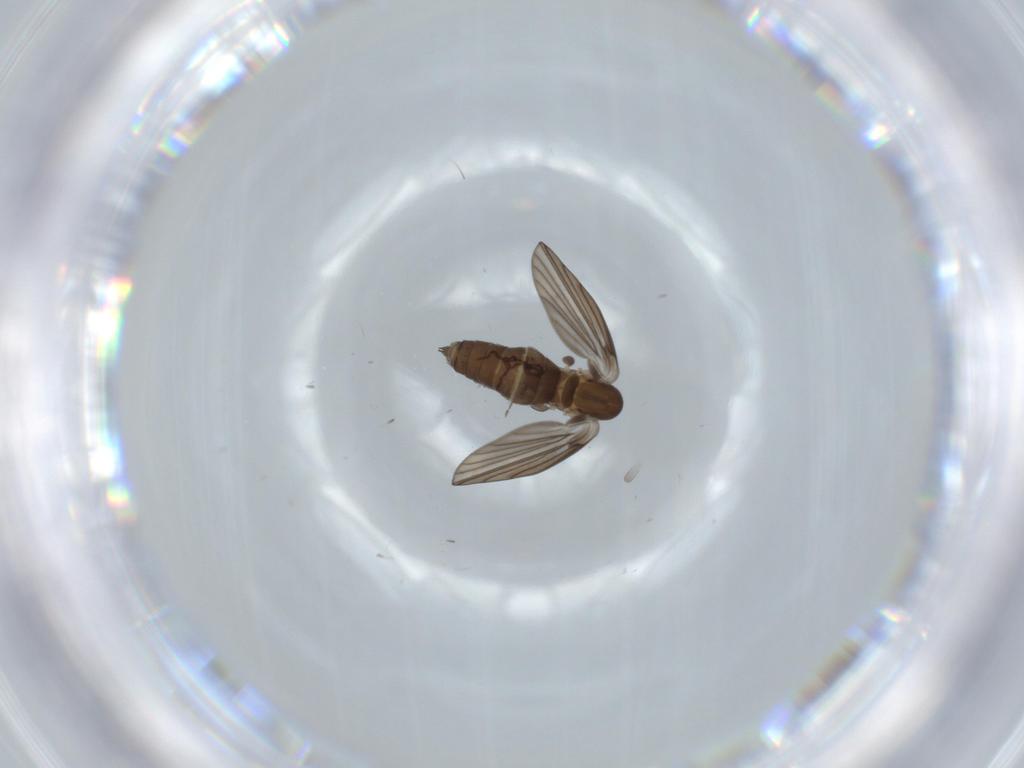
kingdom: Animalia
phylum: Arthropoda
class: Insecta
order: Diptera
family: Psychodidae
